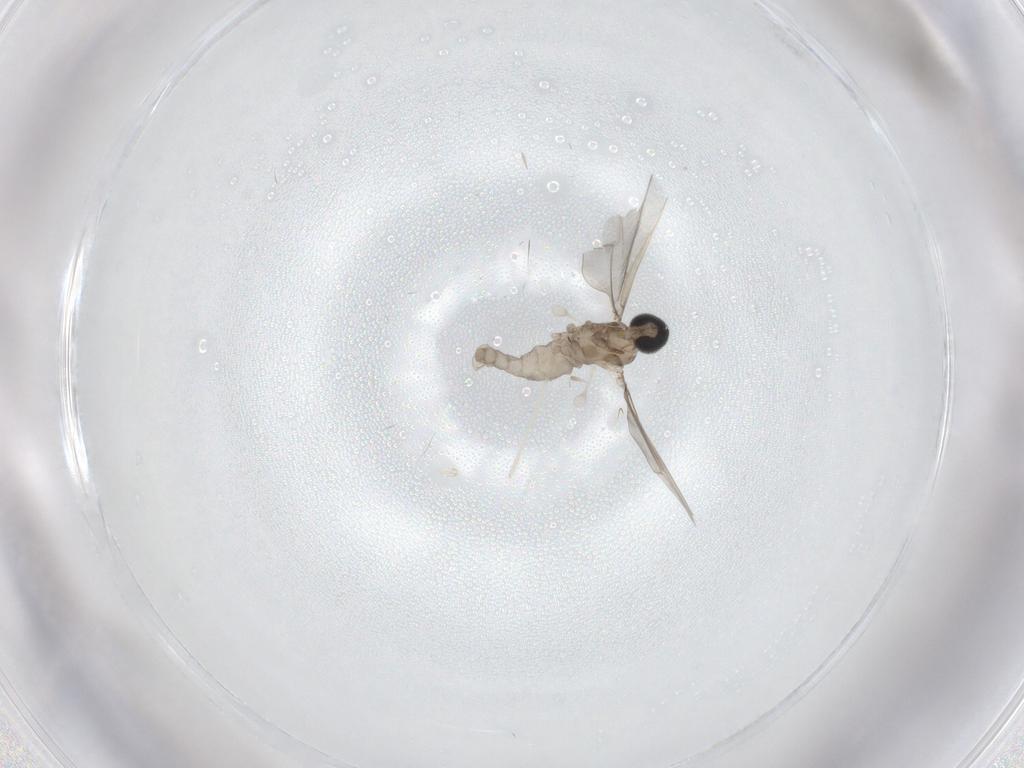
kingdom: Animalia
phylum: Arthropoda
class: Insecta
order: Diptera
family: Cecidomyiidae
